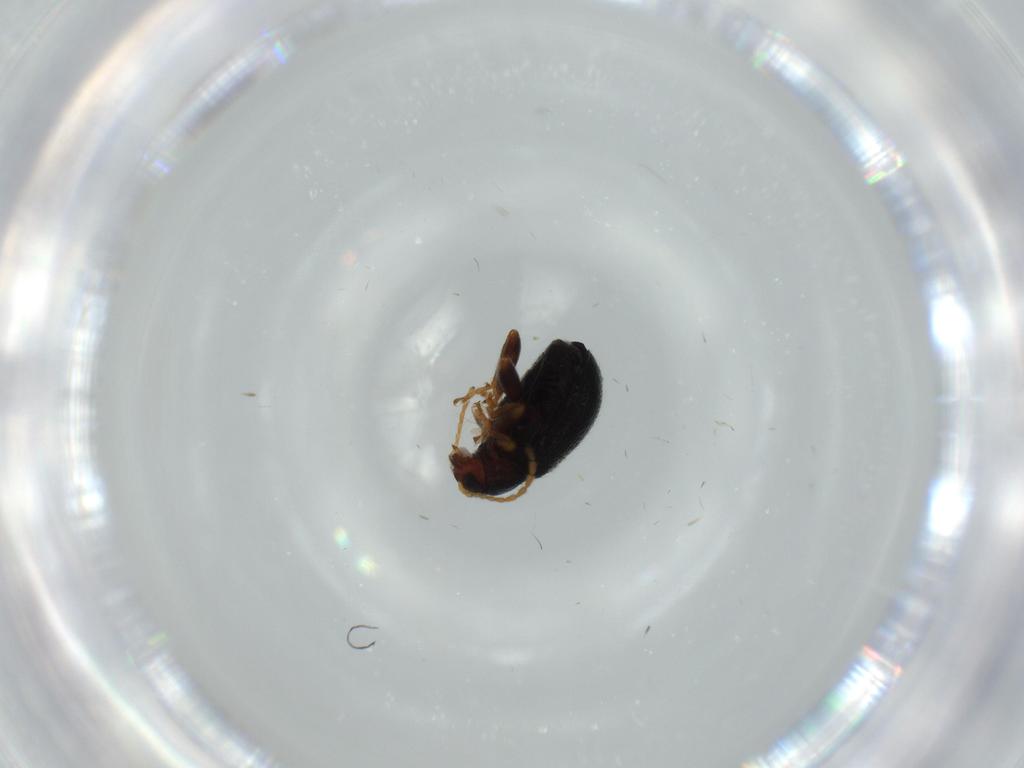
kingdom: Animalia
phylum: Arthropoda
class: Insecta
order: Coleoptera
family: Chrysomelidae
